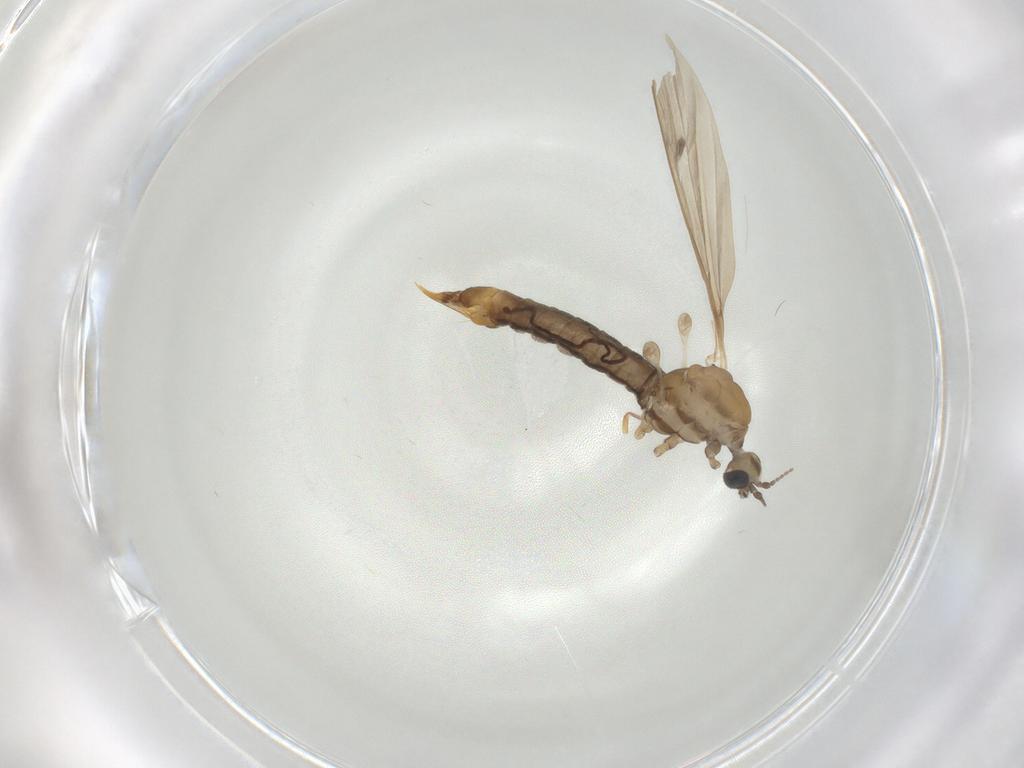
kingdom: Animalia
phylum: Arthropoda
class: Insecta
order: Diptera
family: Limoniidae
